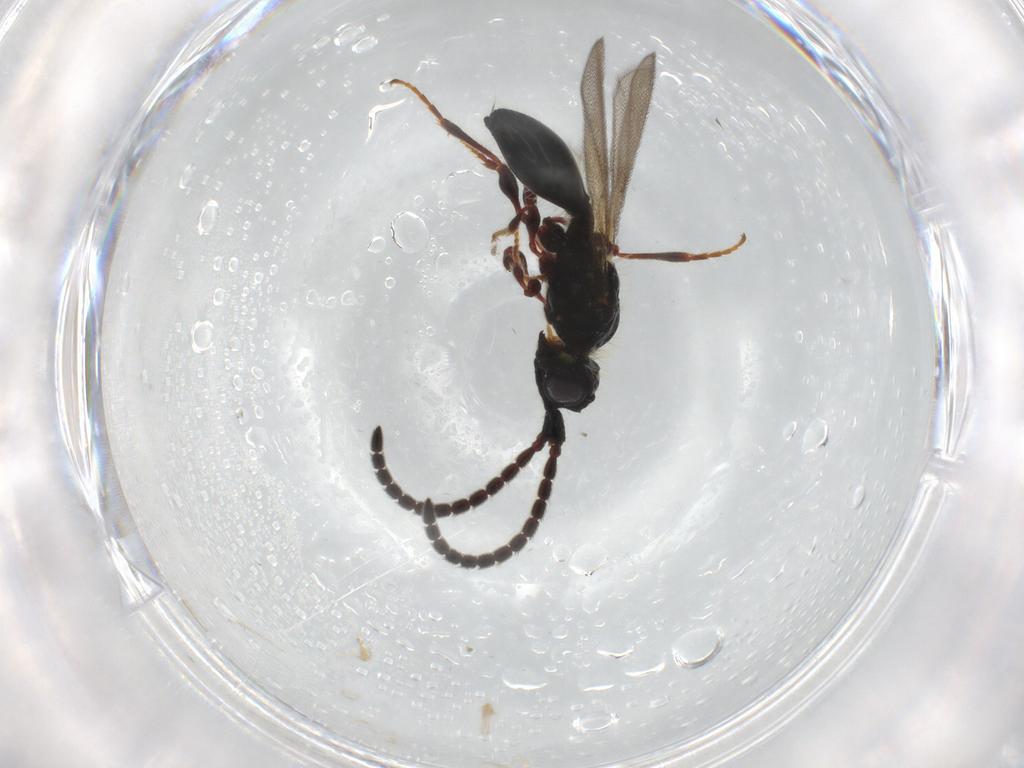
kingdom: Animalia
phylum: Arthropoda
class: Insecta
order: Hymenoptera
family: Diapriidae
